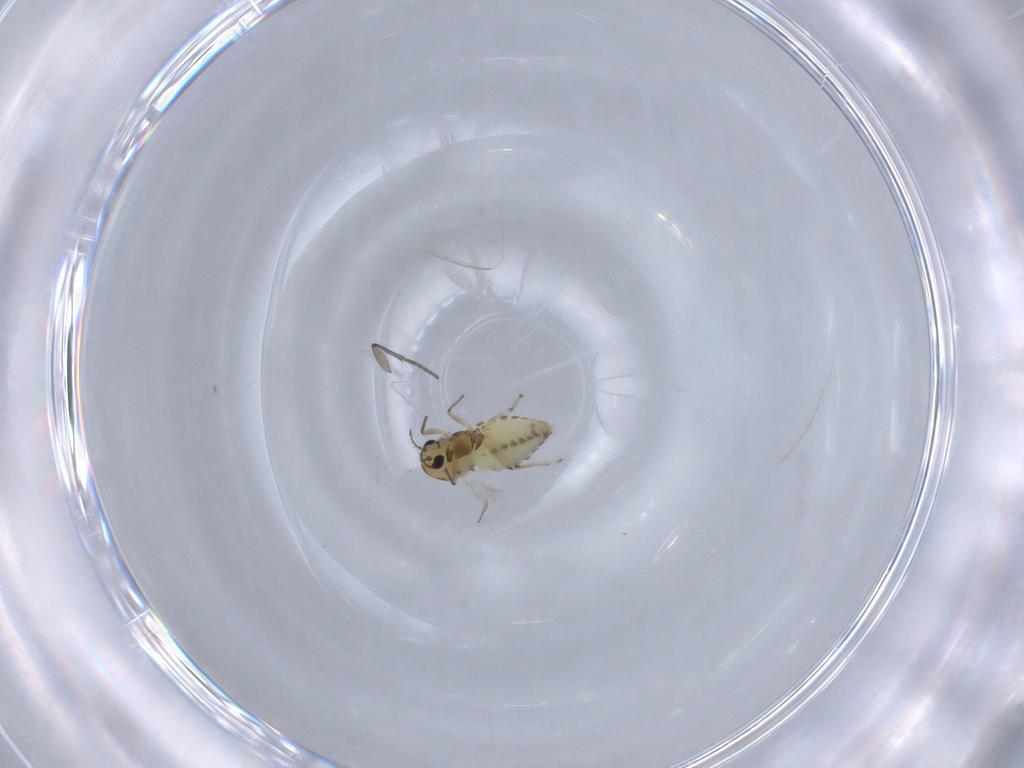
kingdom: Animalia
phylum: Arthropoda
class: Insecta
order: Diptera
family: Chironomidae
